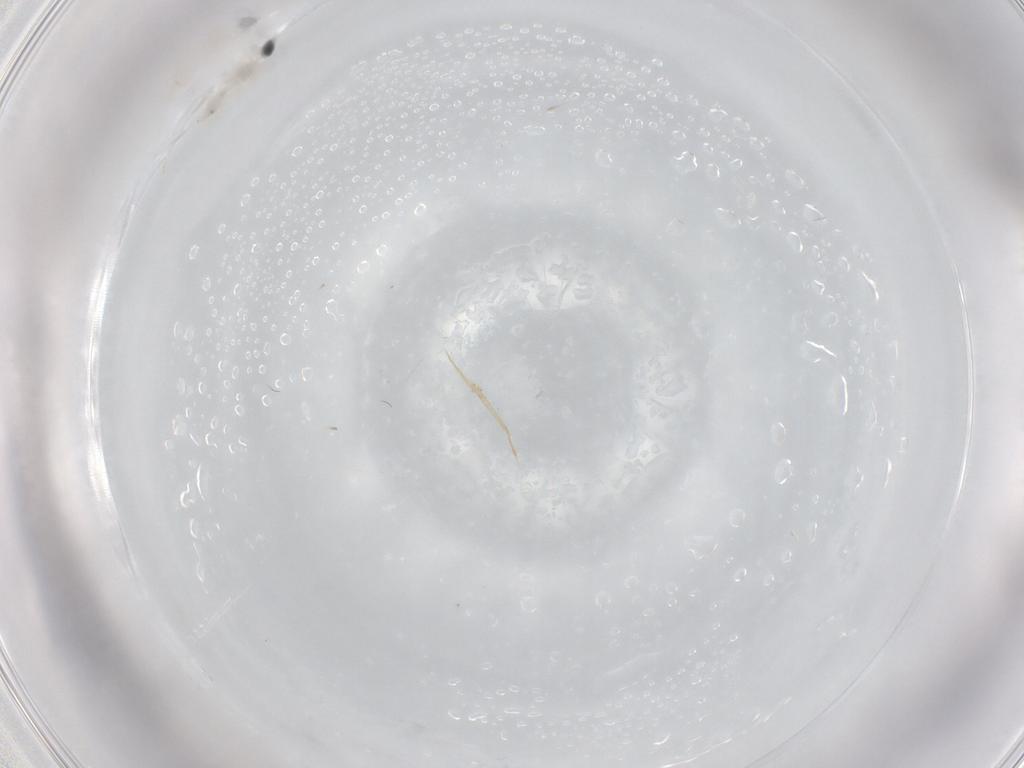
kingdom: Animalia
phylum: Arthropoda
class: Insecta
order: Diptera
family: Cecidomyiidae
